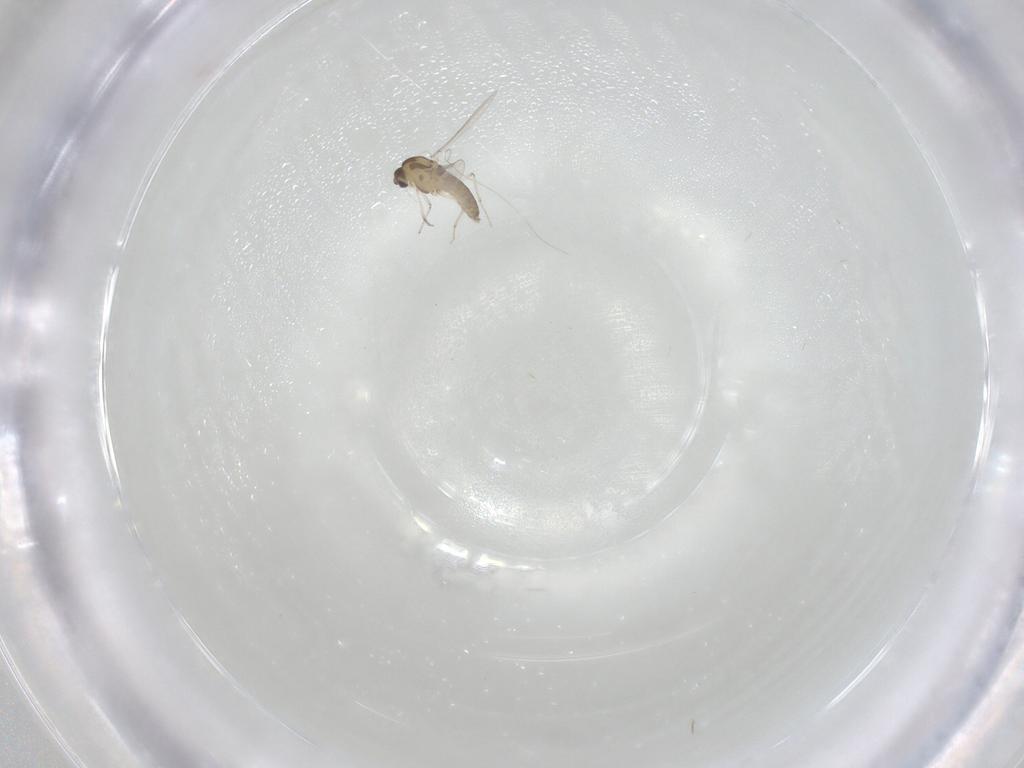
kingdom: Animalia
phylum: Arthropoda
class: Insecta
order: Diptera
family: Chironomidae
